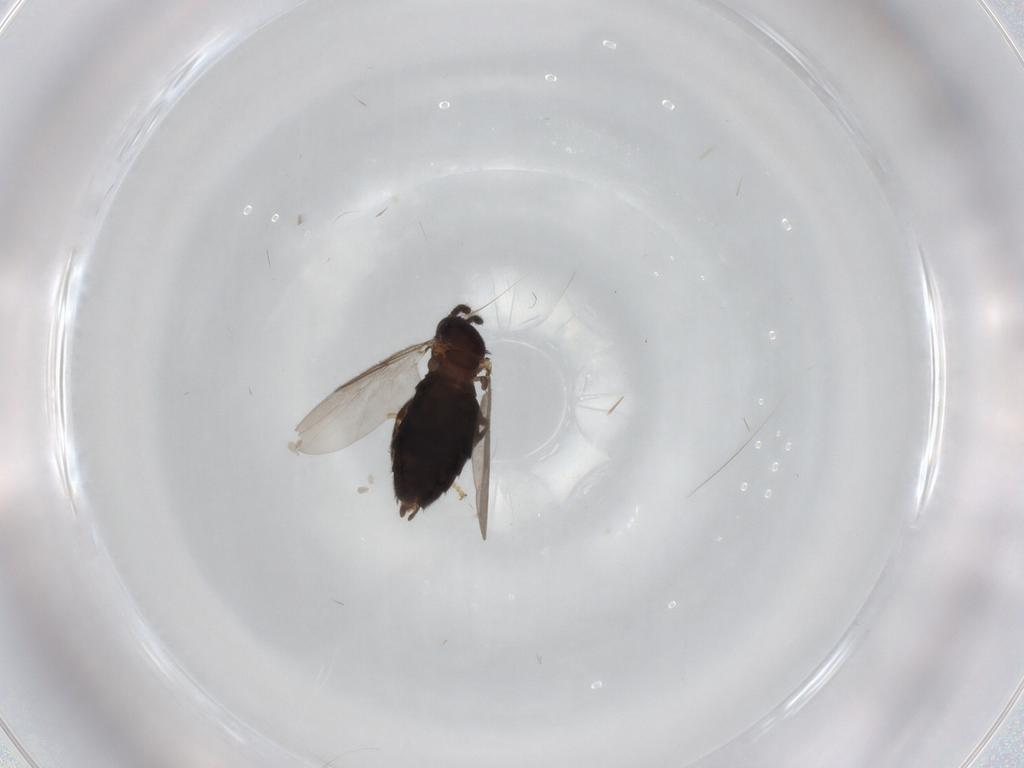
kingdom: Animalia
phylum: Arthropoda
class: Insecta
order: Diptera
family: Scatopsidae
